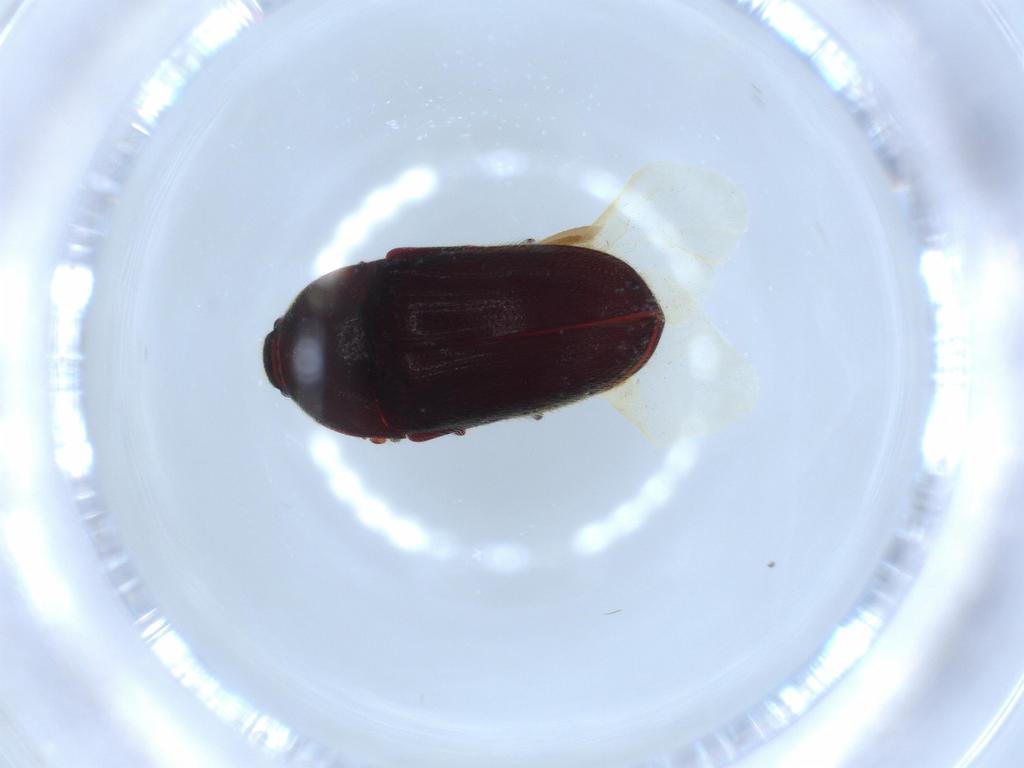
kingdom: Animalia
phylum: Arthropoda
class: Insecta
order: Coleoptera
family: Throscidae
